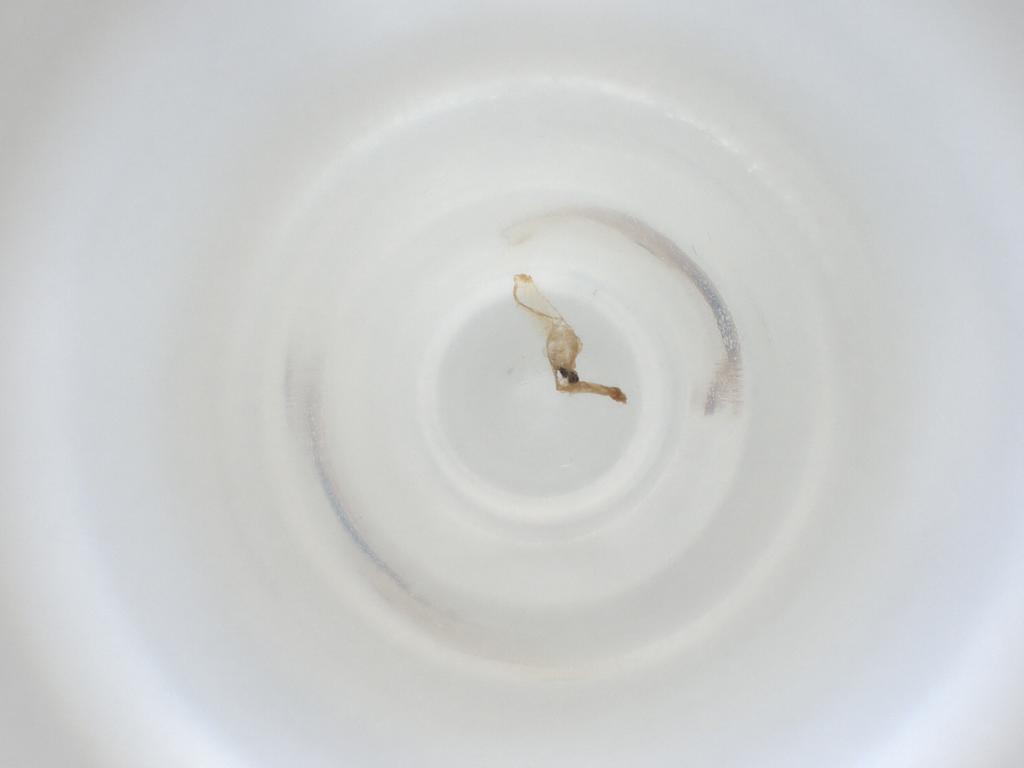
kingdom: Animalia
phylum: Arthropoda
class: Insecta
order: Diptera
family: Cecidomyiidae
